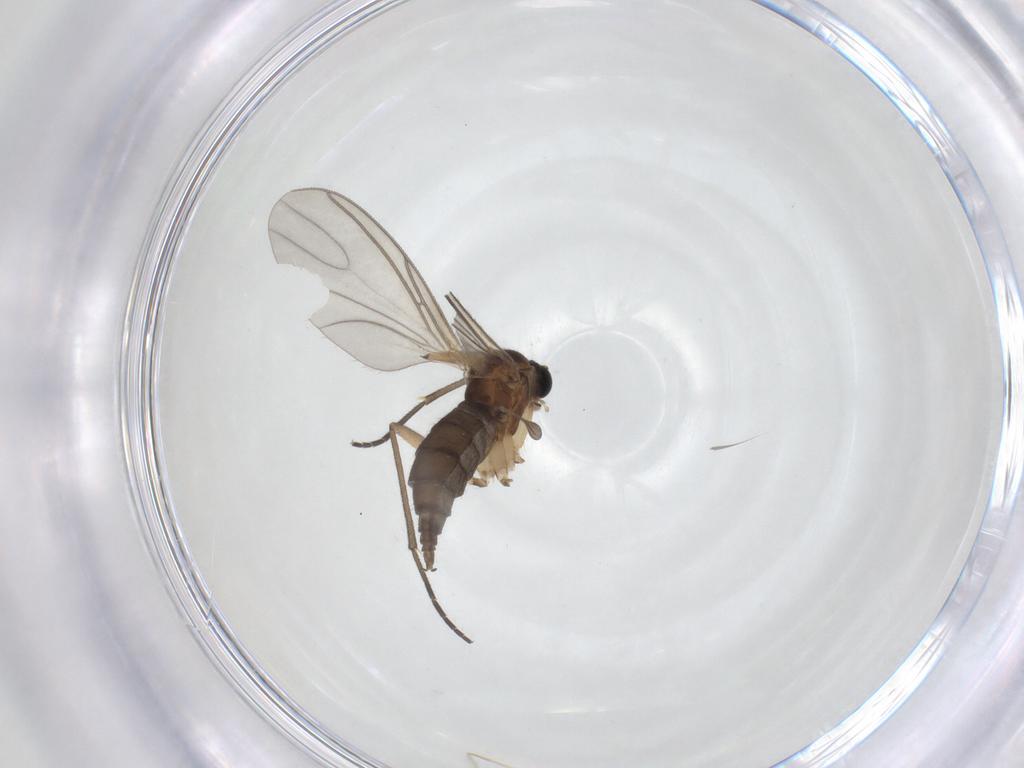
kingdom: Animalia
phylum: Arthropoda
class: Insecta
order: Diptera
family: Sciaridae
